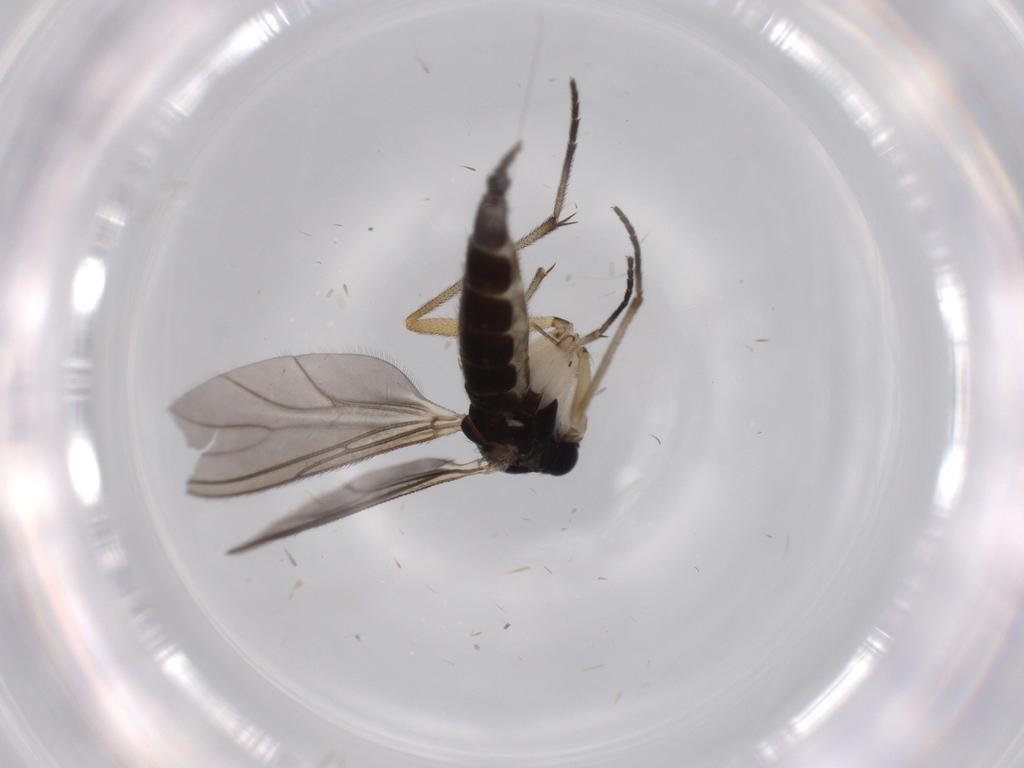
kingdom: Animalia
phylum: Arthropoda
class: Insecta
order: Diptera
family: Sciaridae
